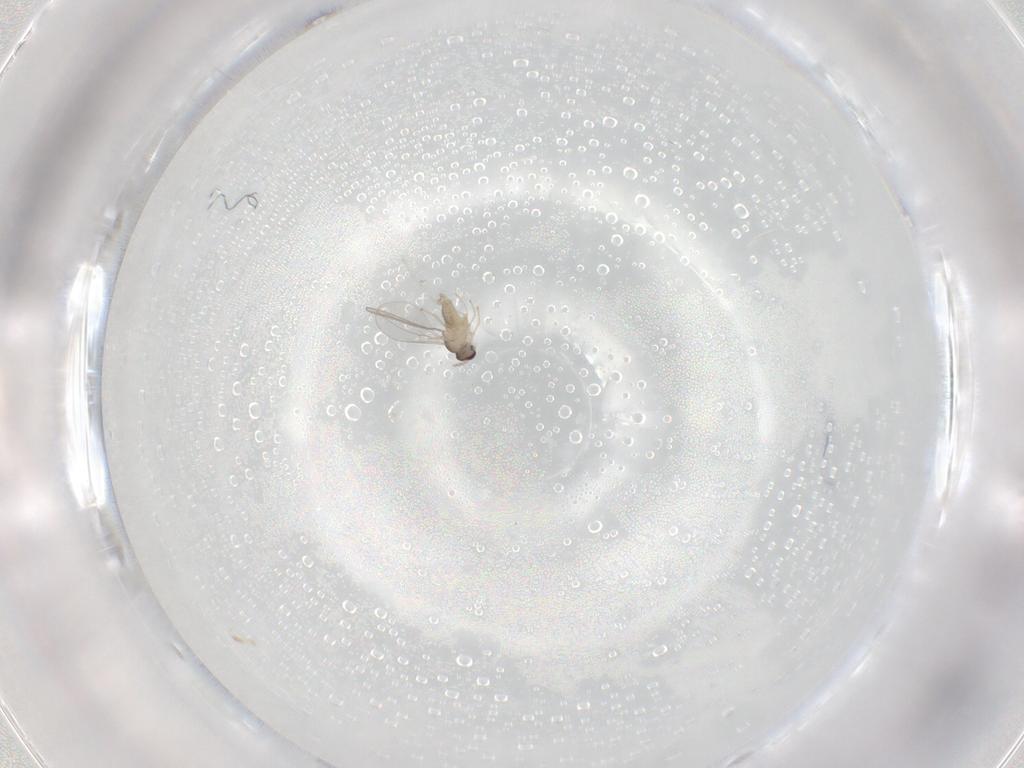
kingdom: Animalia
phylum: Arthropoda
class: Insecta
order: Diptera
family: Cecidomyiidae
